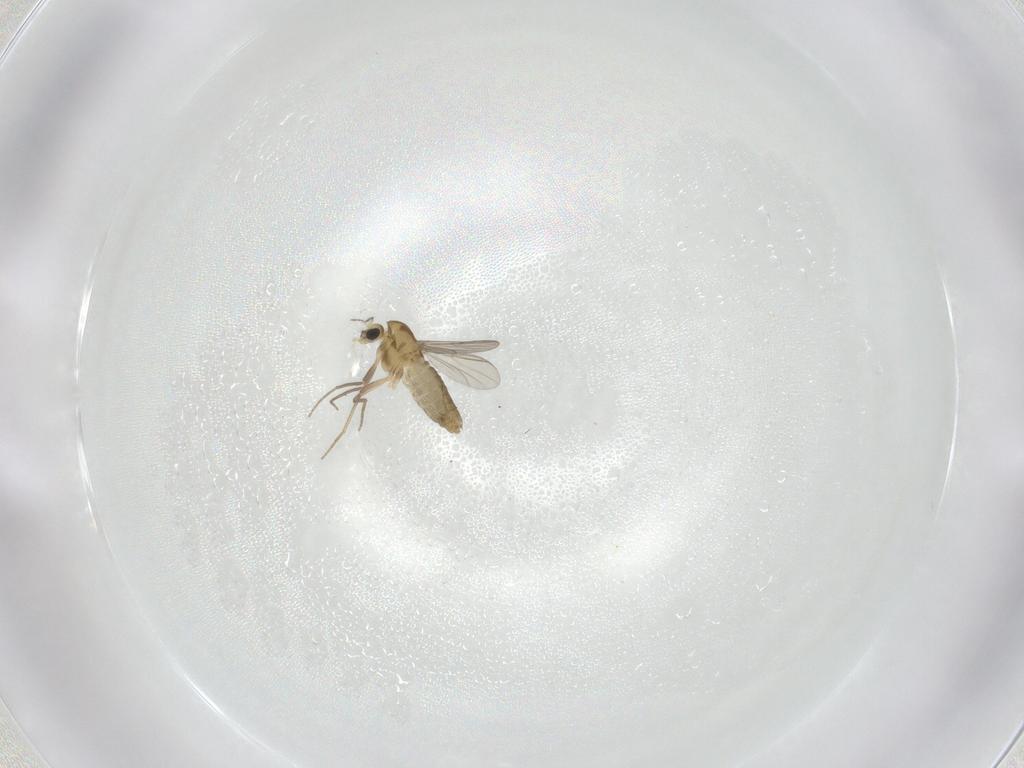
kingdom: Animalia
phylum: Arthropoda
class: Insecta
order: Diptera
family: Chironomidae
